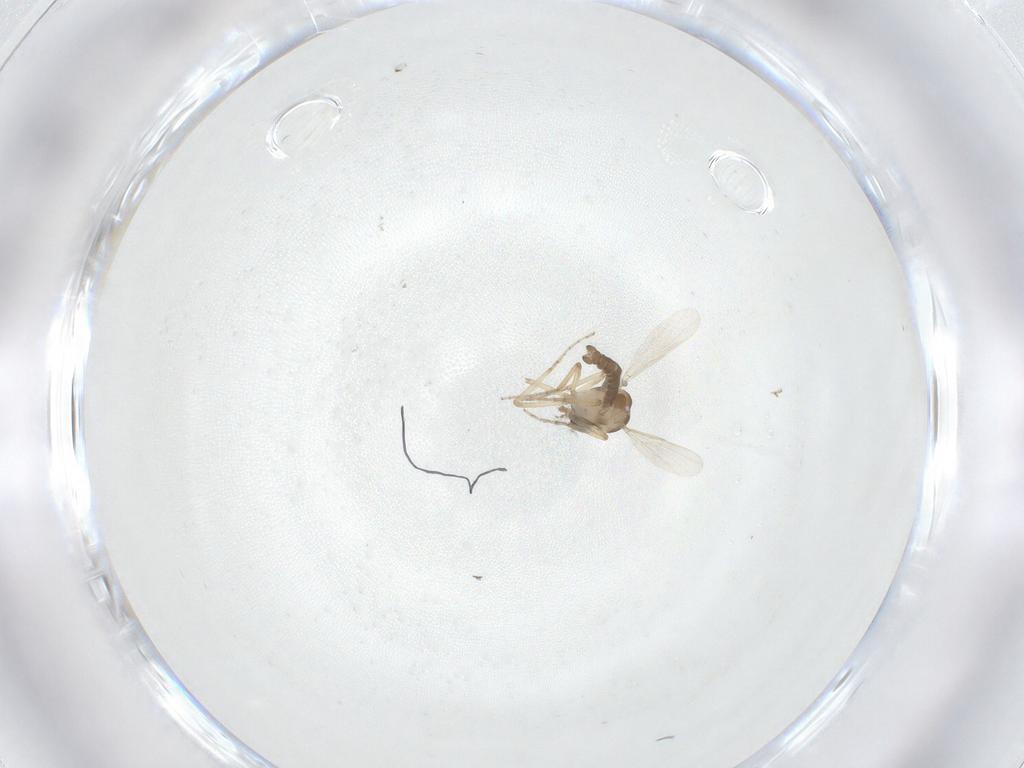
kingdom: Animalia
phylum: Arthropoda
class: Insecta
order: Diptera
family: Ceratopogonidae
